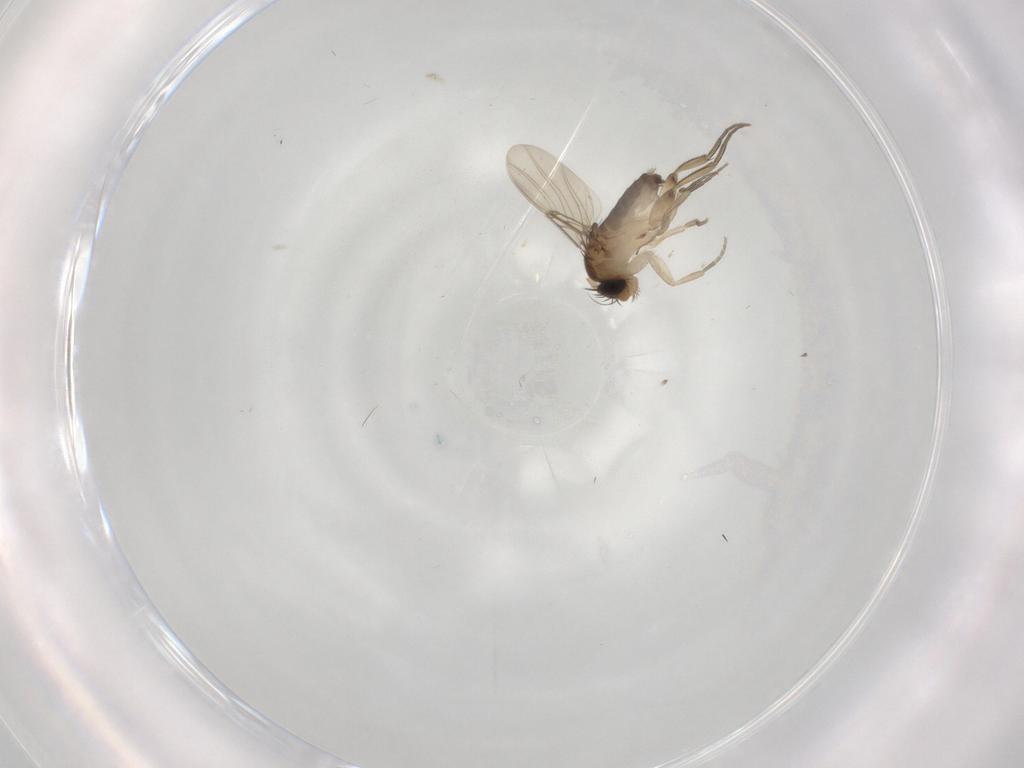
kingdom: Animalia
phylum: Arthropoda
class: Insecta
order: Diptera
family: Phoridae
